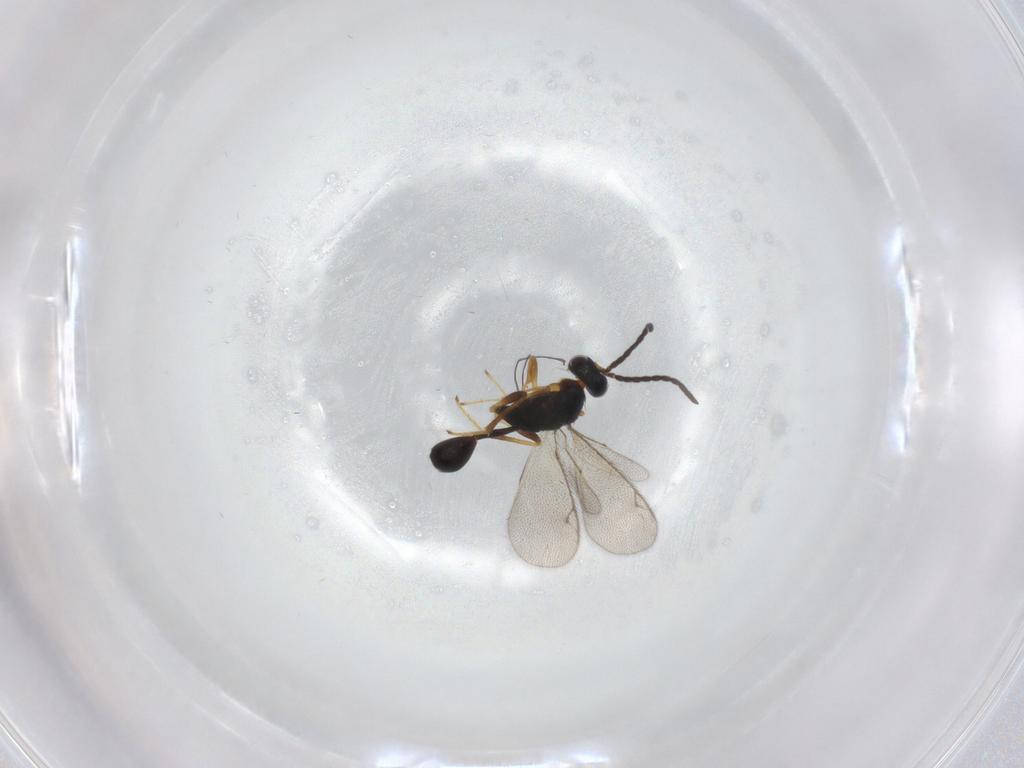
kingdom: Animalia
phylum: Arthropoda
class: Insecta
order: Hymenoptera
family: Diparidae
